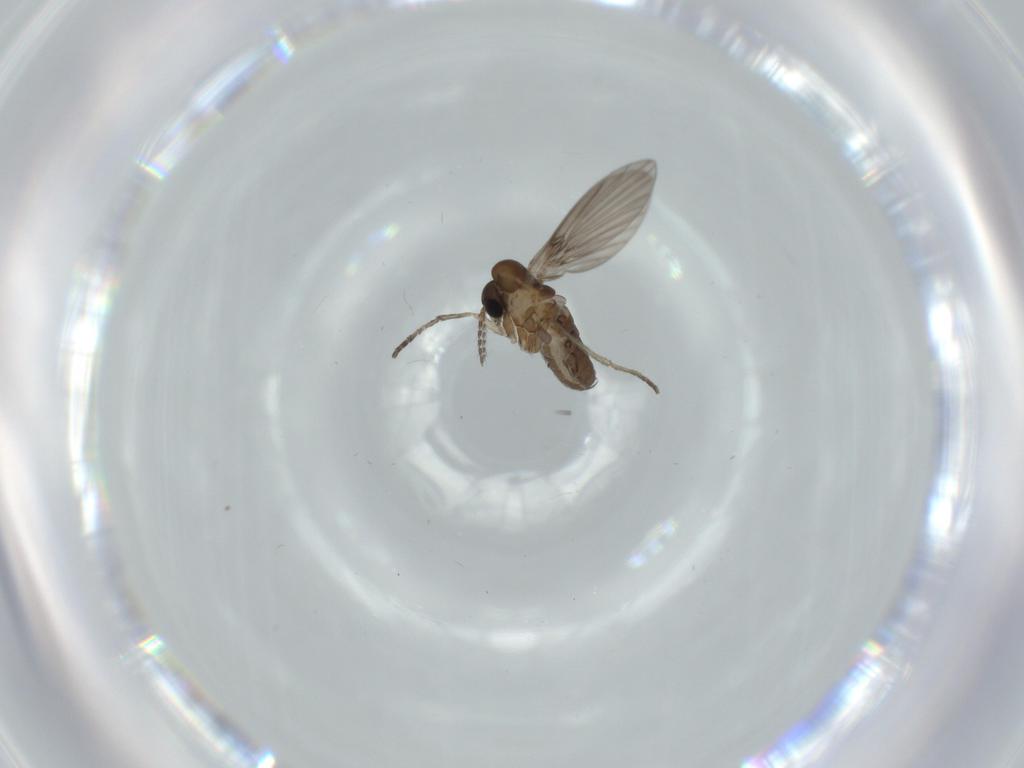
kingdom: Animalia
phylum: Arthropoda
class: Insecta
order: Diptera
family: Psychodidae
